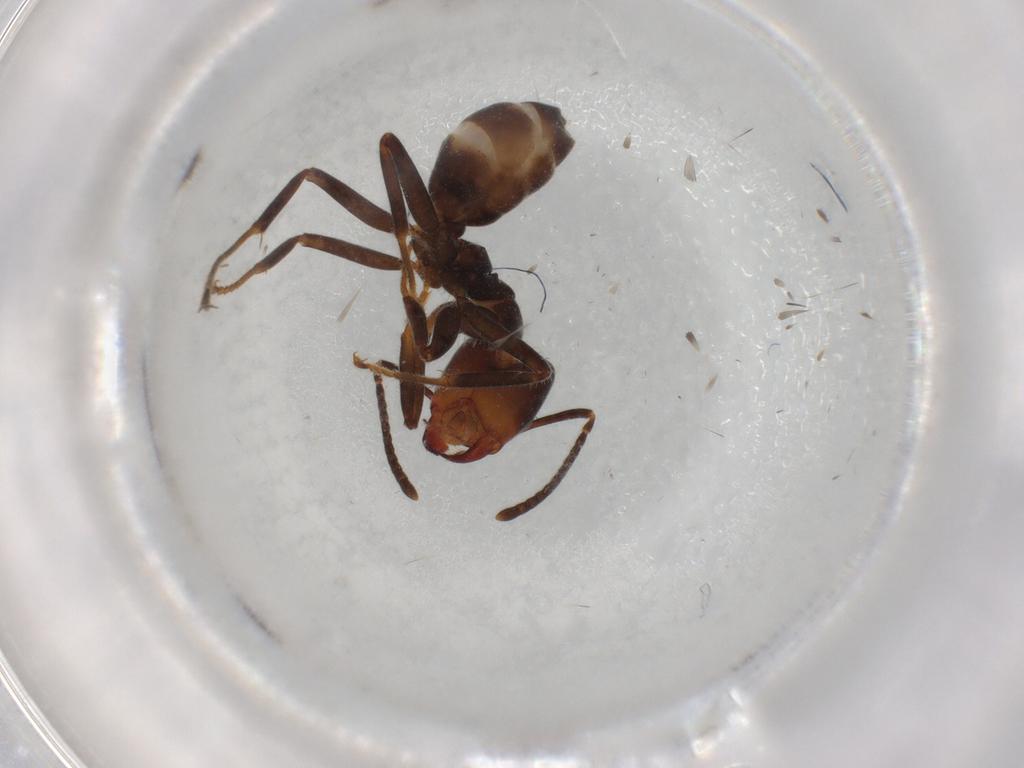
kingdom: Animalia
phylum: Arthropoda
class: Insecta
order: Hymenoptera
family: Formicidae
